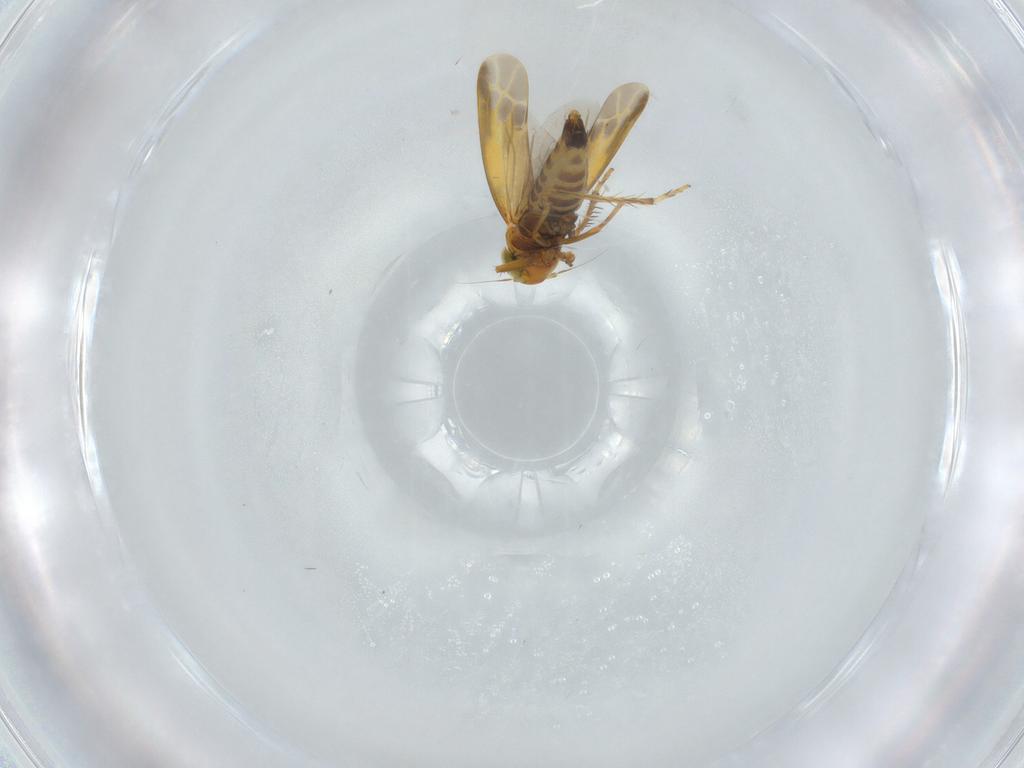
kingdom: Animalia
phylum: Arthropoda
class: Insecta
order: Hemiptera
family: Cicadellidae
